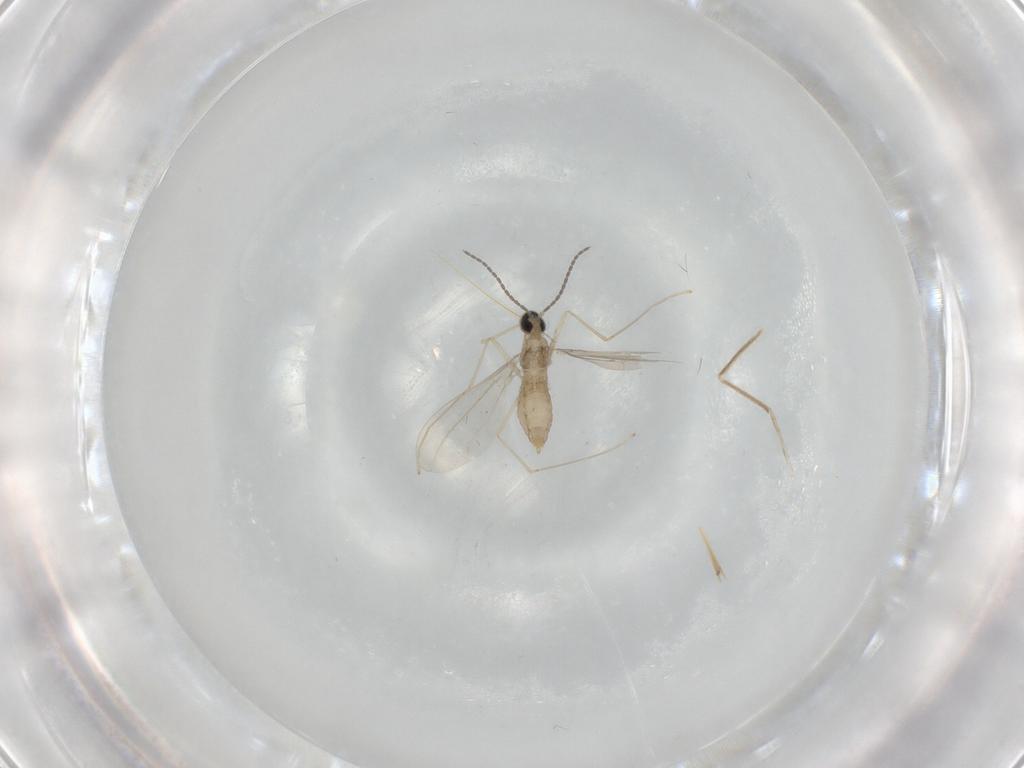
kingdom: Animalia
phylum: Arthropoda
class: Insecta
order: Diptera
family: Cecidomyiidae
